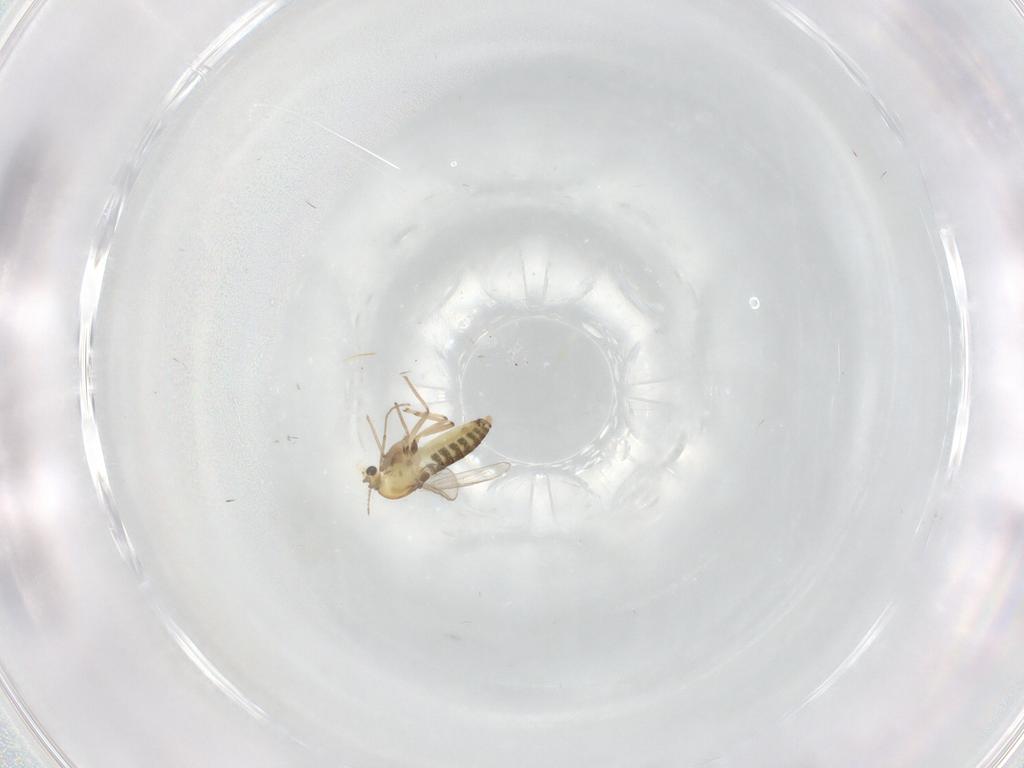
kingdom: Animalia
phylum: Arthropoda
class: Insecta
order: Diptera
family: Chironomidae
